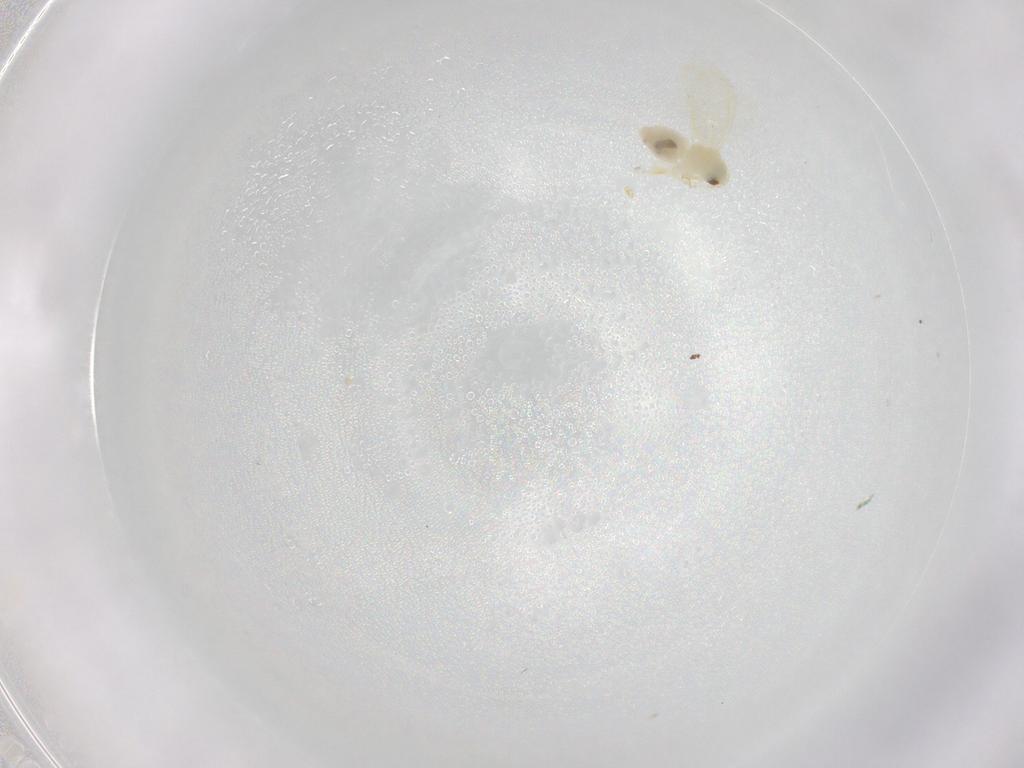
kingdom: Animalia
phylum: Arthropoda
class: Insecta
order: Hemiptera
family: Aleyrodidae
